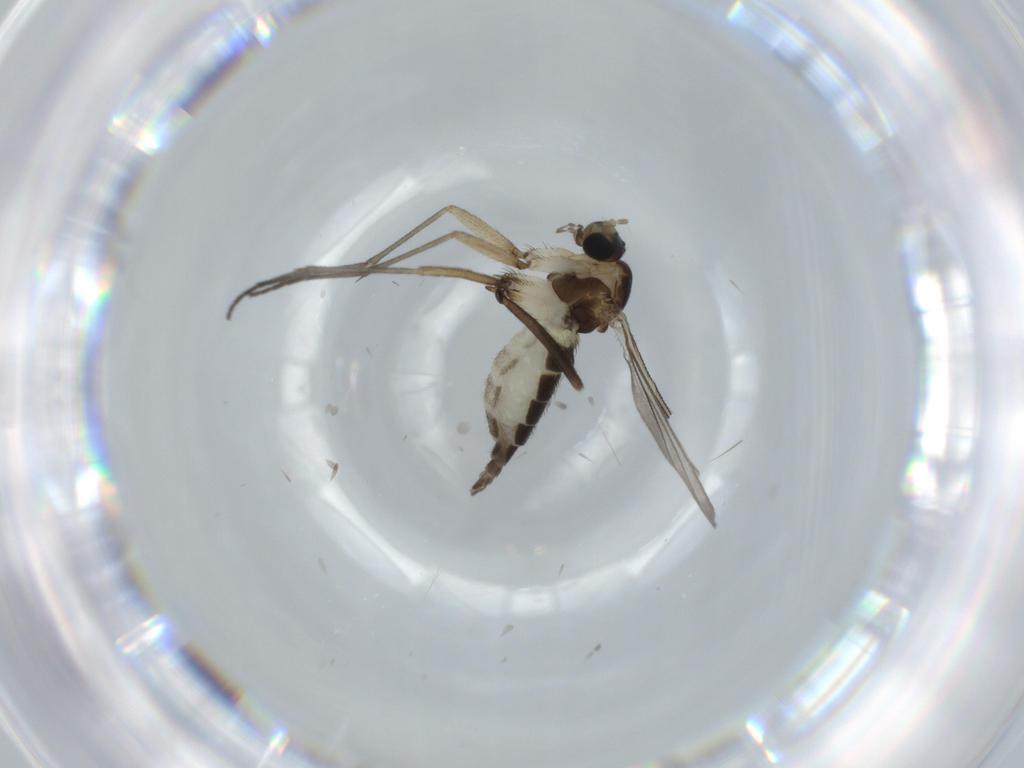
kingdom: Animalia
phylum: Arthropoda
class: Insecta
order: Diptera
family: Sciaridae
